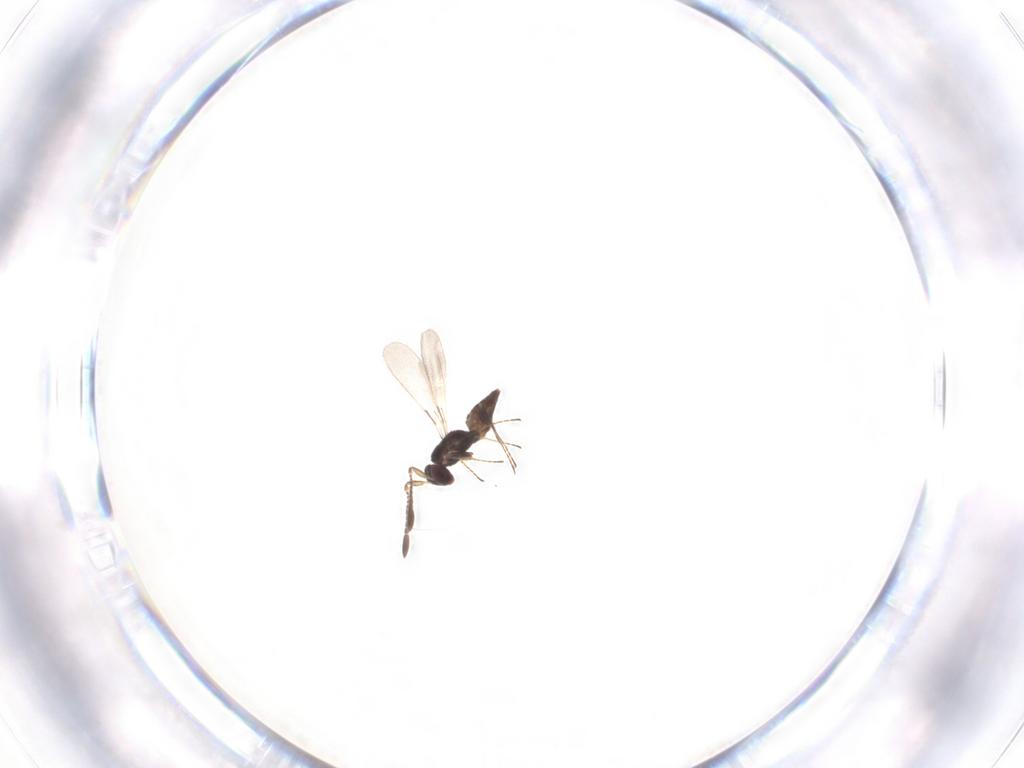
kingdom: Animalia
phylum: Arthropoda
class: Insecta
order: Hymenoptera
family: Mymaridae
